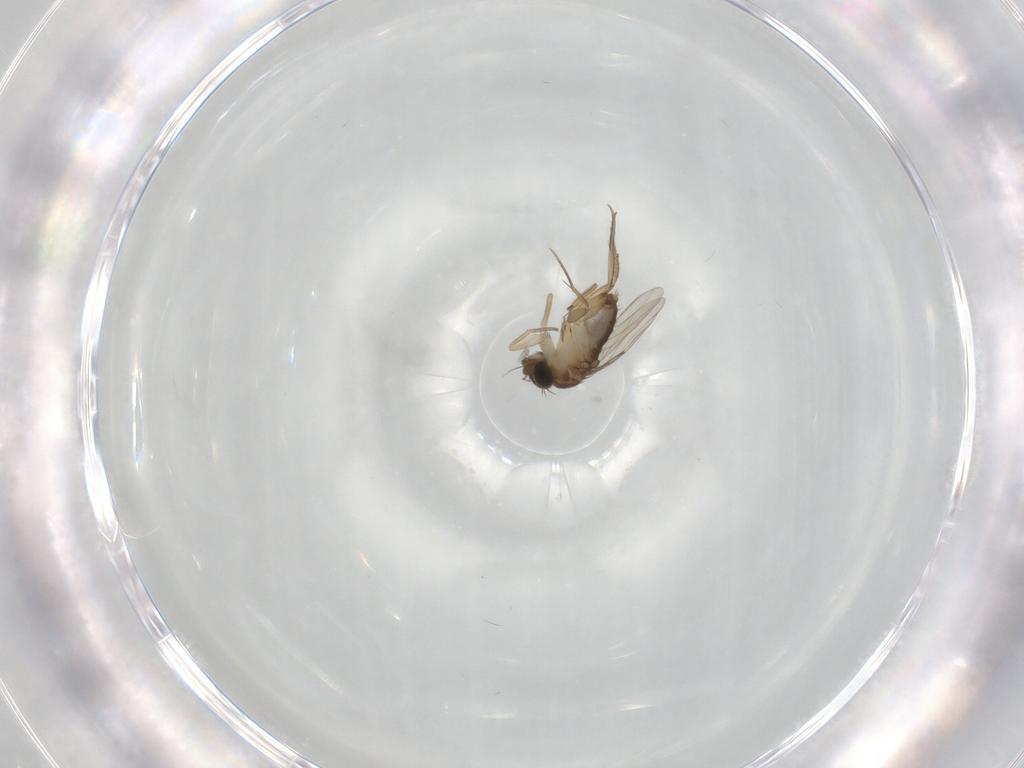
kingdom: Animalia
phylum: Arthropoda
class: Insecta
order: Diptera
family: Phoridae
